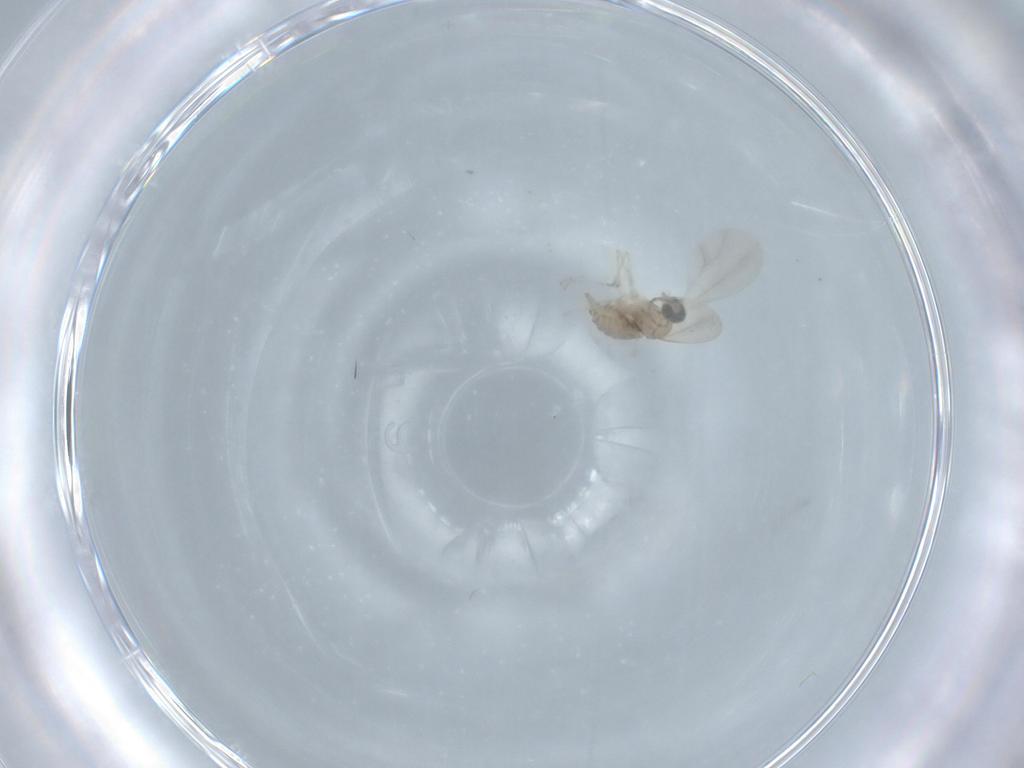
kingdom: Animalia
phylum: Arthropoda
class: Insecta
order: Diptera
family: Cecidomyiidae
